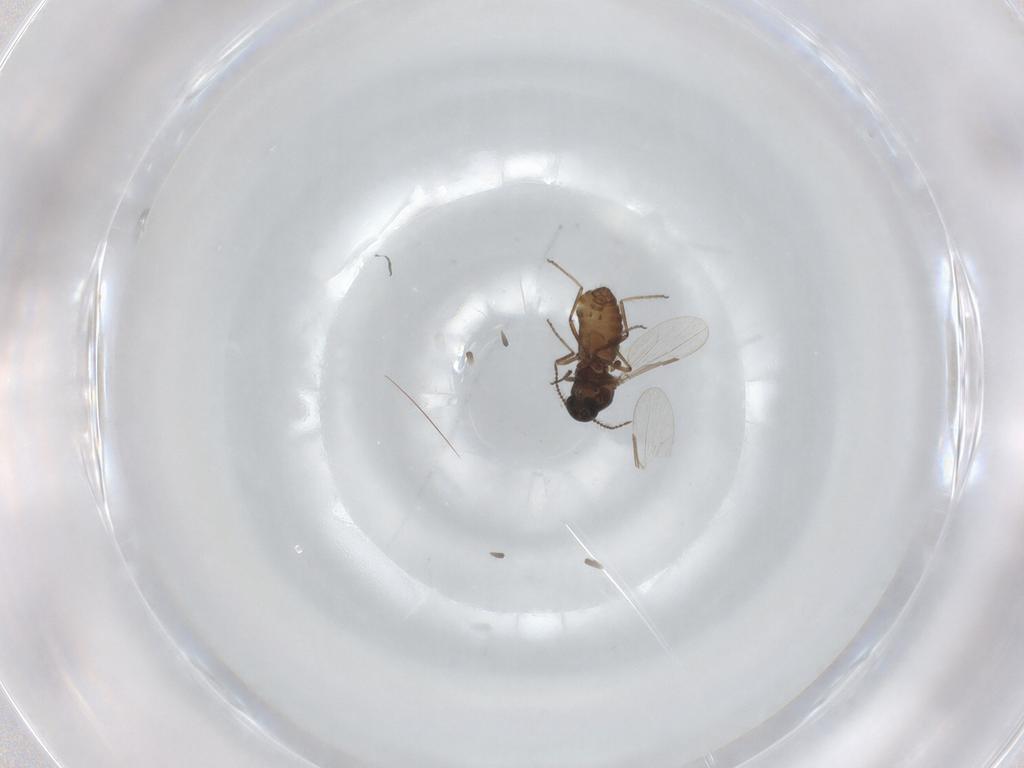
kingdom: Animalia
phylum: Arthropoda
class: Insecta
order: Diptera
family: Ceratopogonidae
